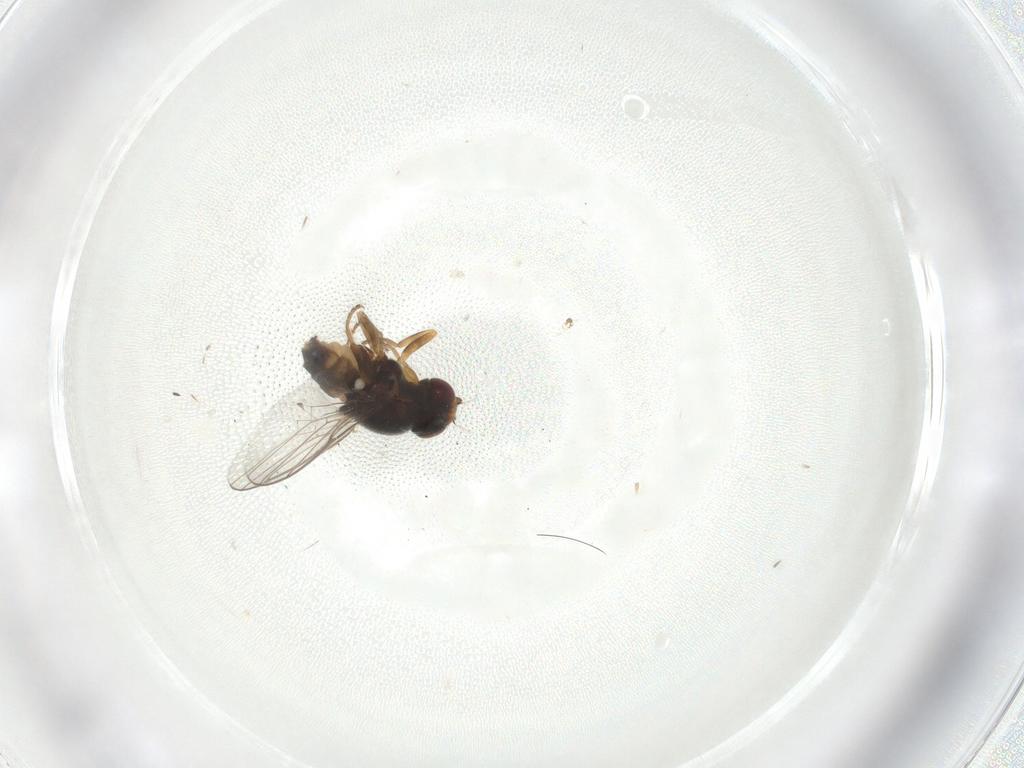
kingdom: Animalia
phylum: Arthropoda
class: Insecta
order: Diptera
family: Chloropidae
